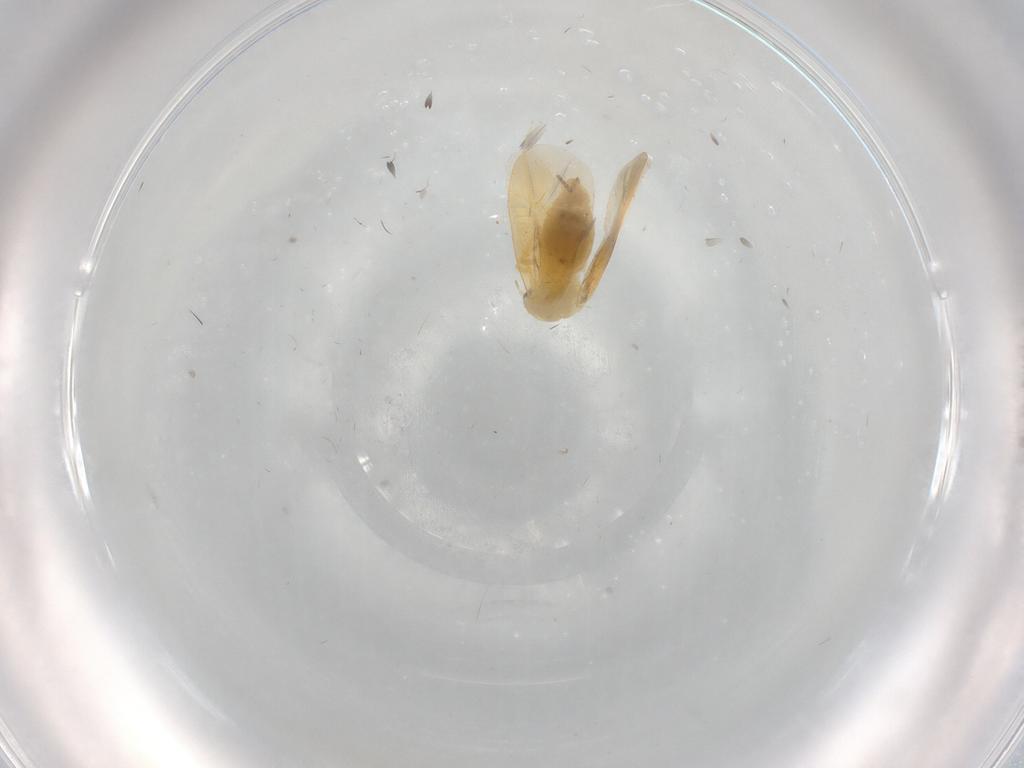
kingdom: Animalia
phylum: Arthropoda
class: Insecta
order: Hemiptera
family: Aleyrodidae
